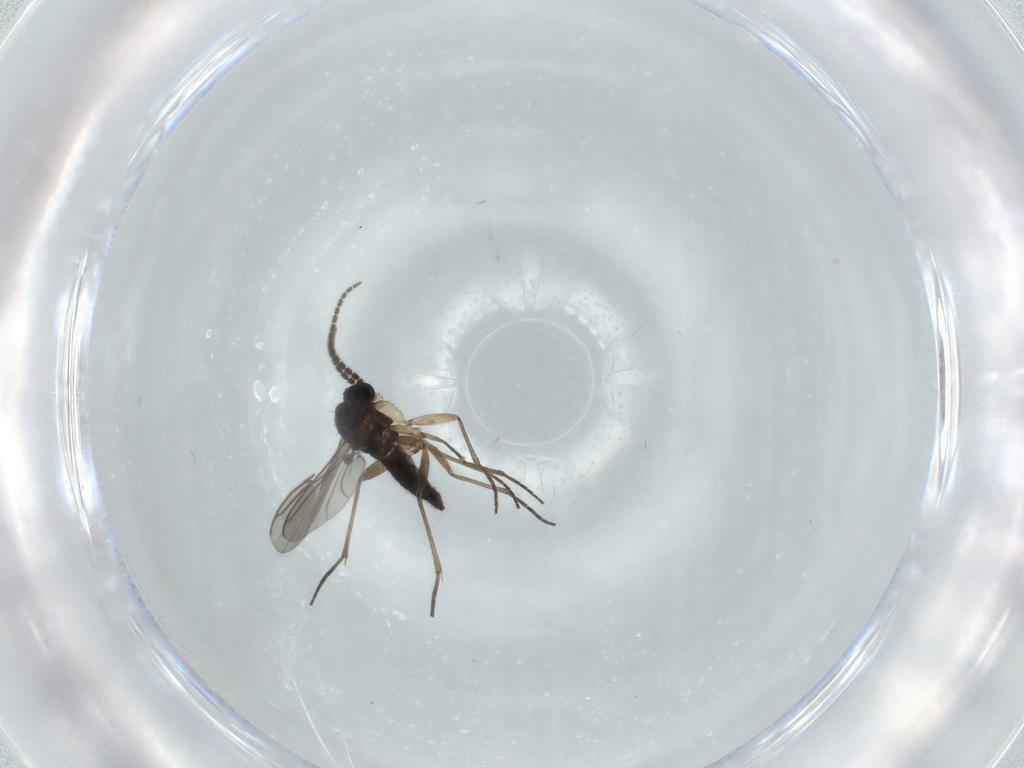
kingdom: Animalia
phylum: Arthropoda
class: Insecta
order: Diptera
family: Sciaridae
